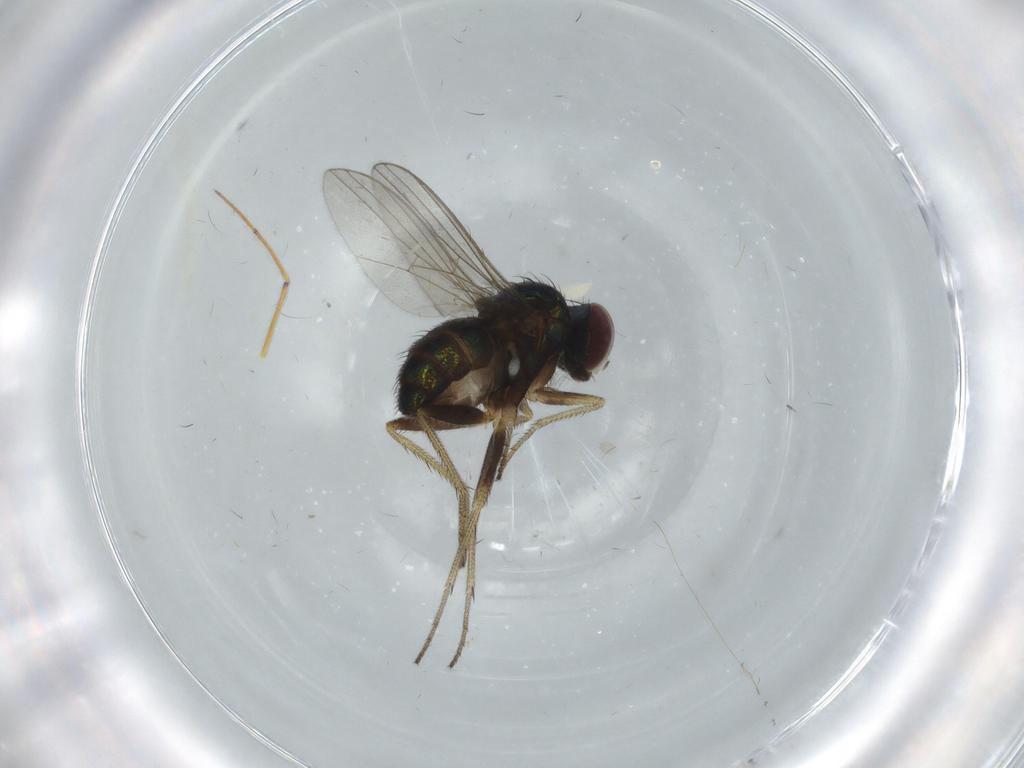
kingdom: Animalia
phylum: Arthropoda
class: Insecta
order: Diptera
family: Dolichopodidae
